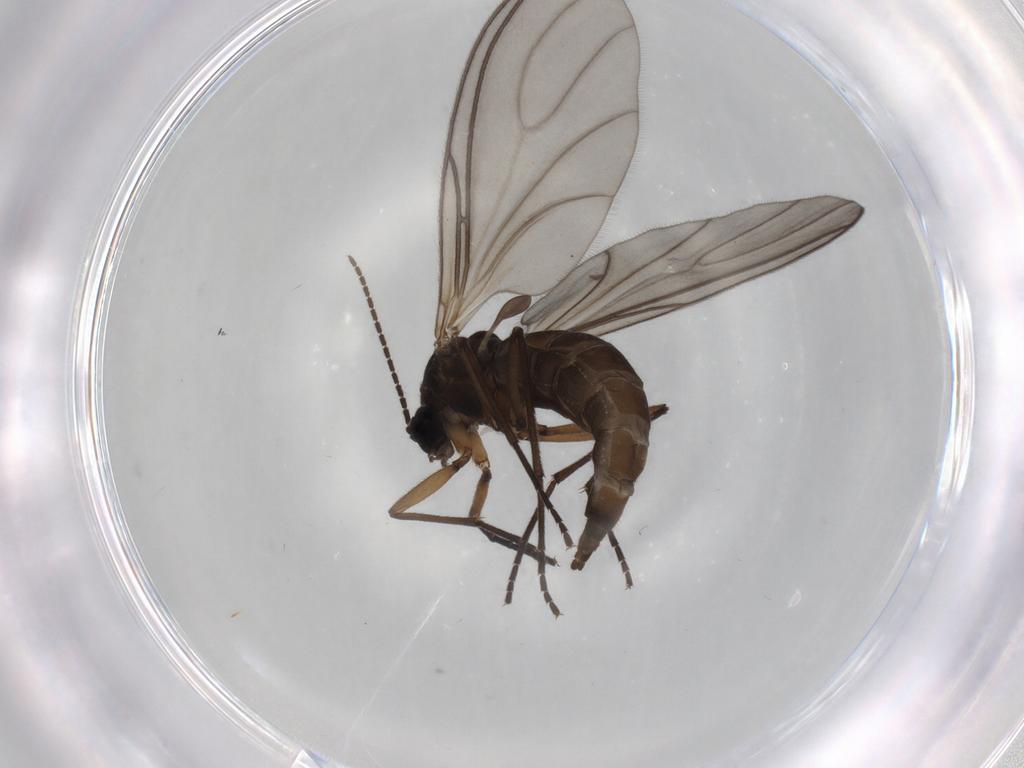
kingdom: Animalia
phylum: Arthropoda
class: Insecta
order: Diptera
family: Sciaridae
